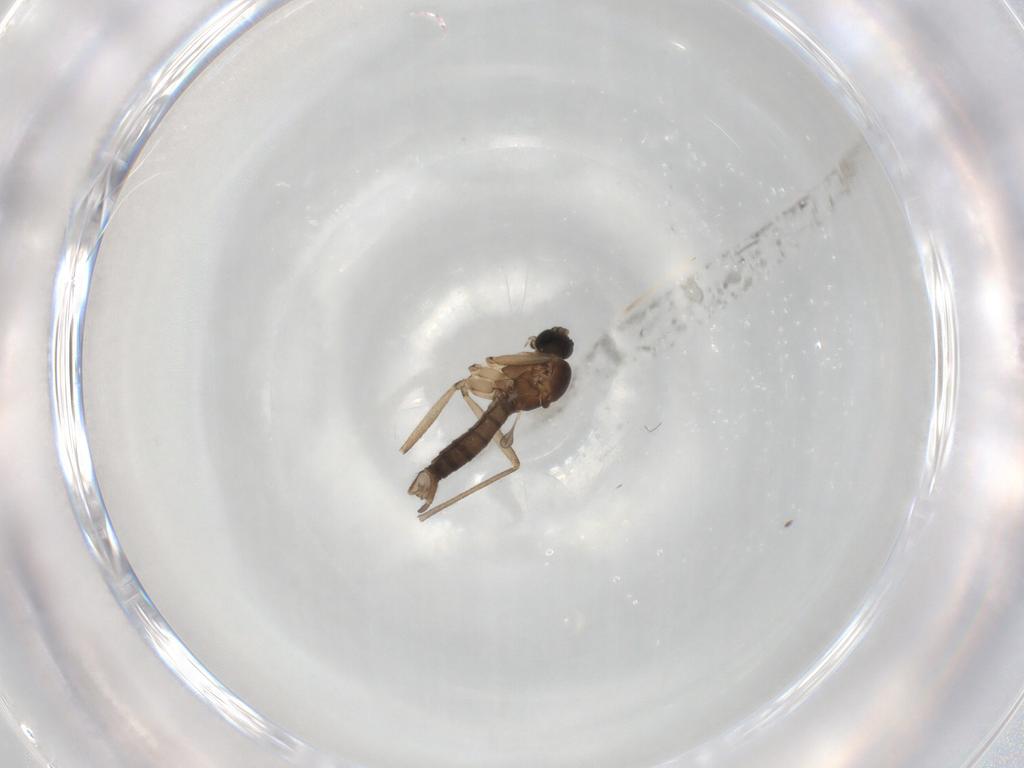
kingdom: Animalia
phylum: Arthropoda
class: Insecta
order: Diptera
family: Sciaridae
